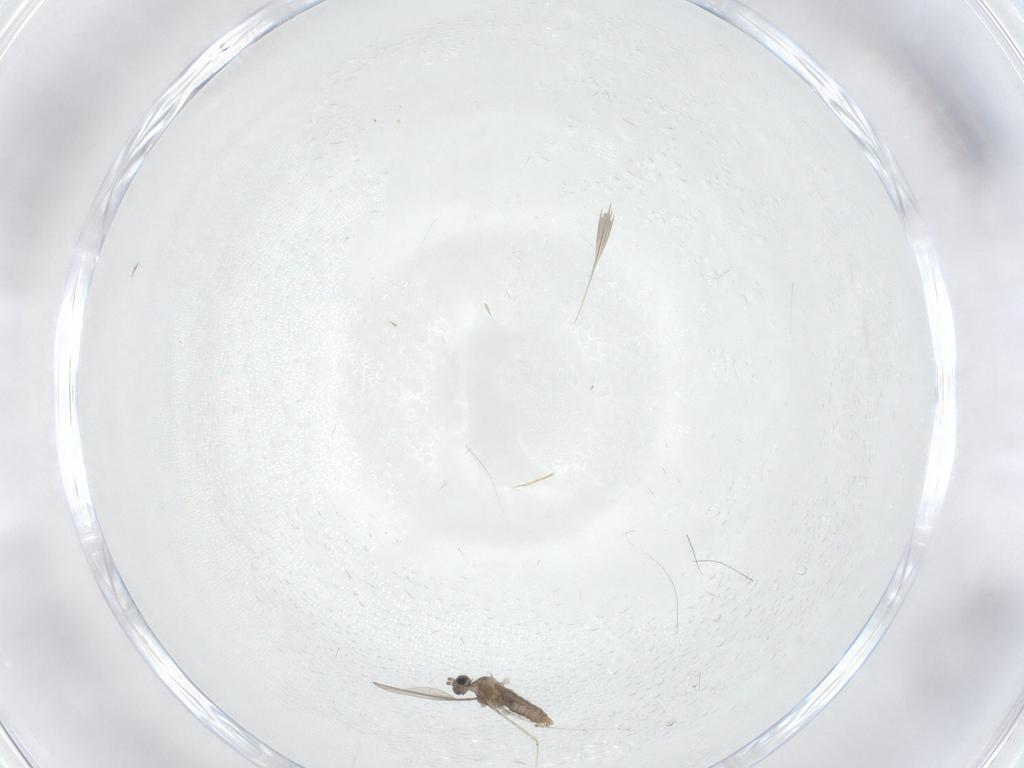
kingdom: Animalia
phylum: Arthropoda
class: Insecta
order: Diptera
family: Cecidomyiidae
